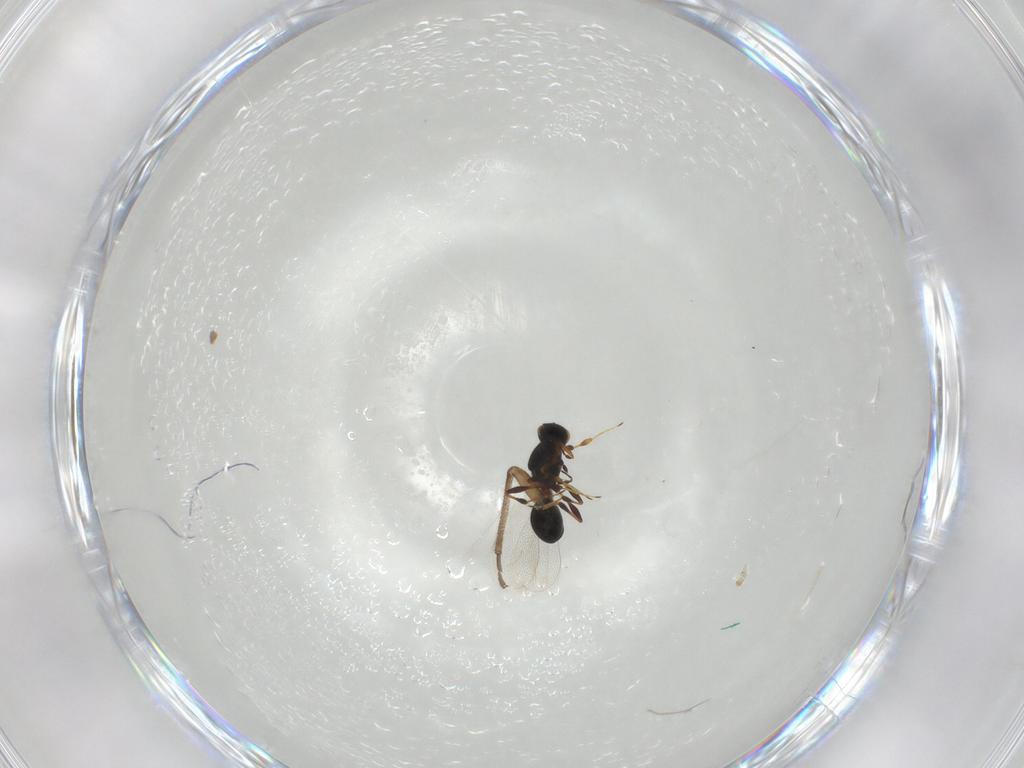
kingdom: Animalia
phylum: Arthropoda
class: Insecta
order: Hymenoptera
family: Platygastridae
